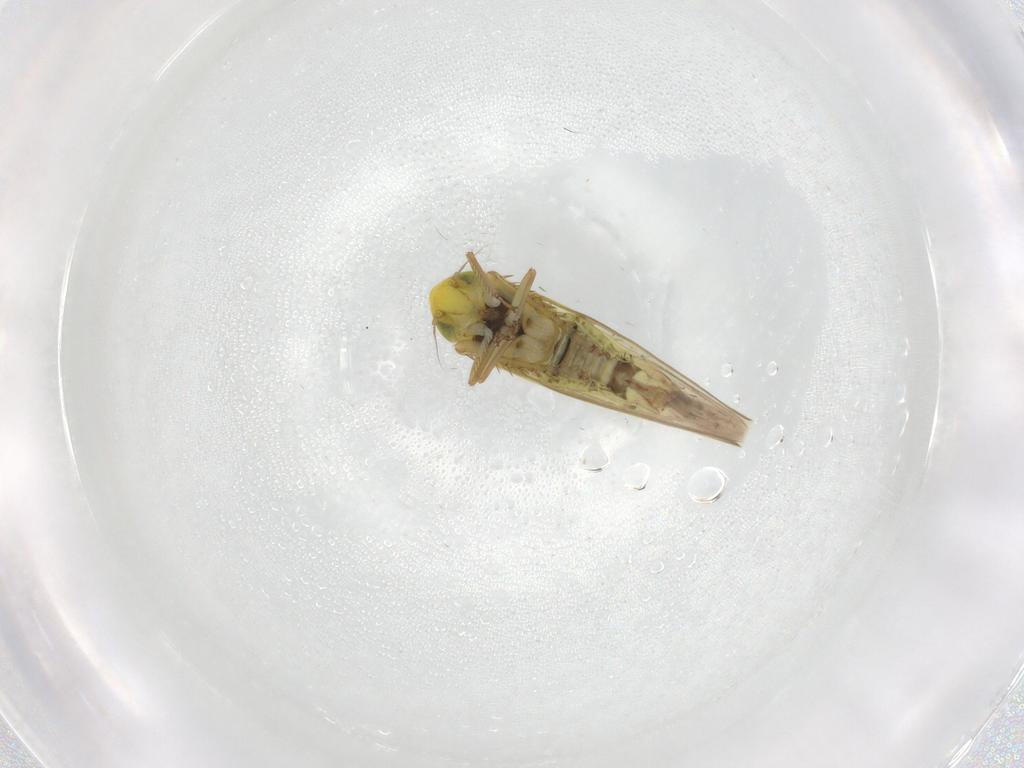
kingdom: Animalia
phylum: Arthropoda
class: Insecta
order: Hemiptera
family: Cicadellidae
